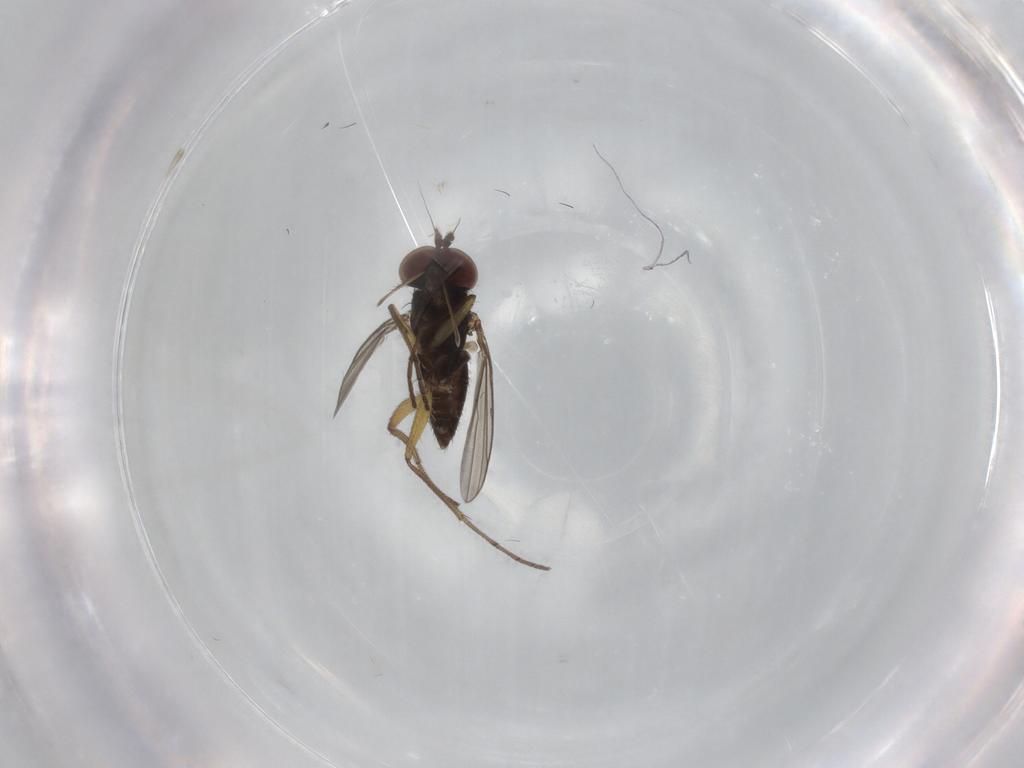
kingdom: Animalia
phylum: Arthropoda
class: Insecta
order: Diptera
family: Dolichopodidae
